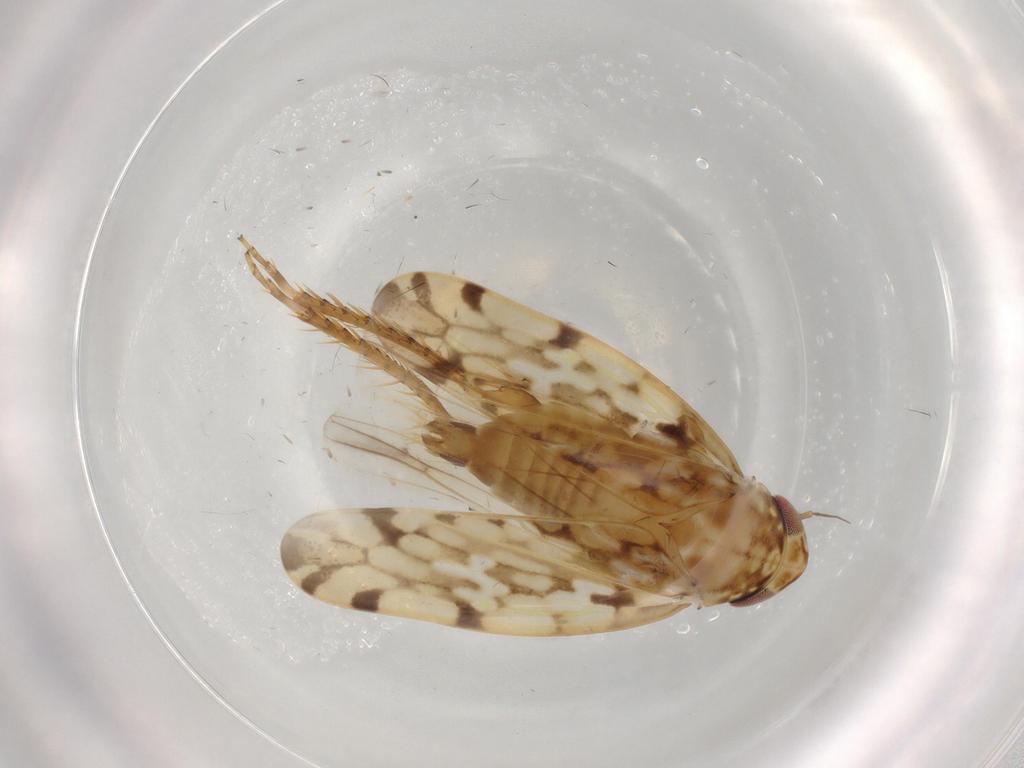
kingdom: Animalia
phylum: Arthropoda
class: Insecta
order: Hemiptera
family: Cicadellidae
